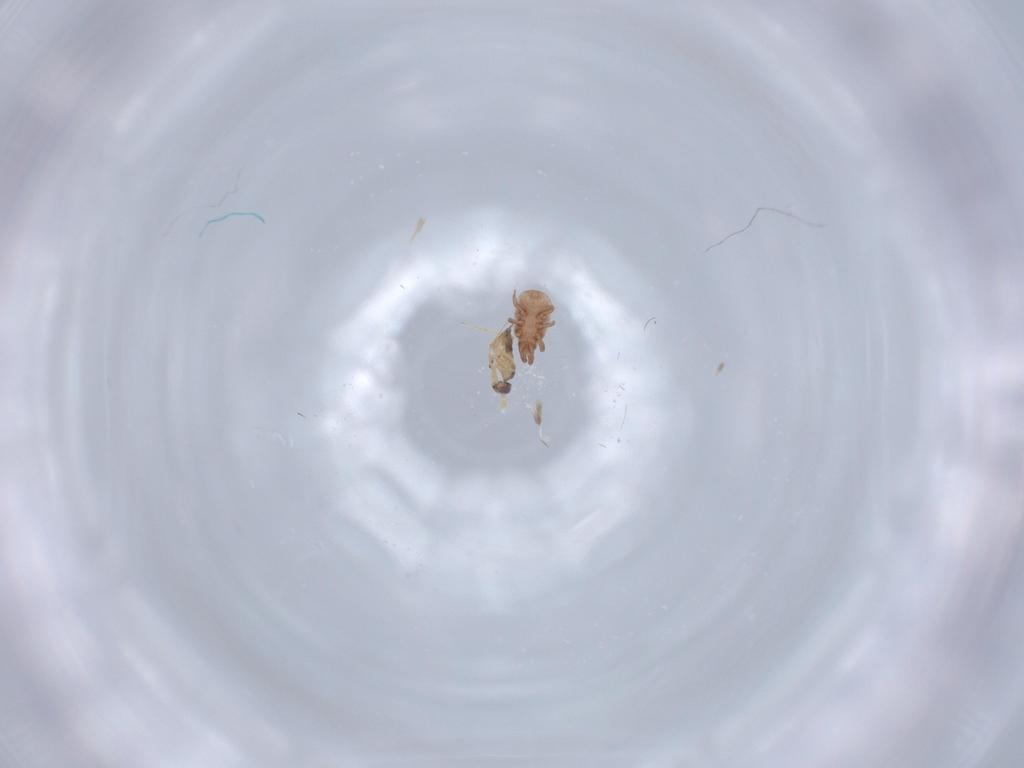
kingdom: Animalia
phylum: Arthropoda
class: Arachnida
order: Mesostigmata
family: Dinychidae
